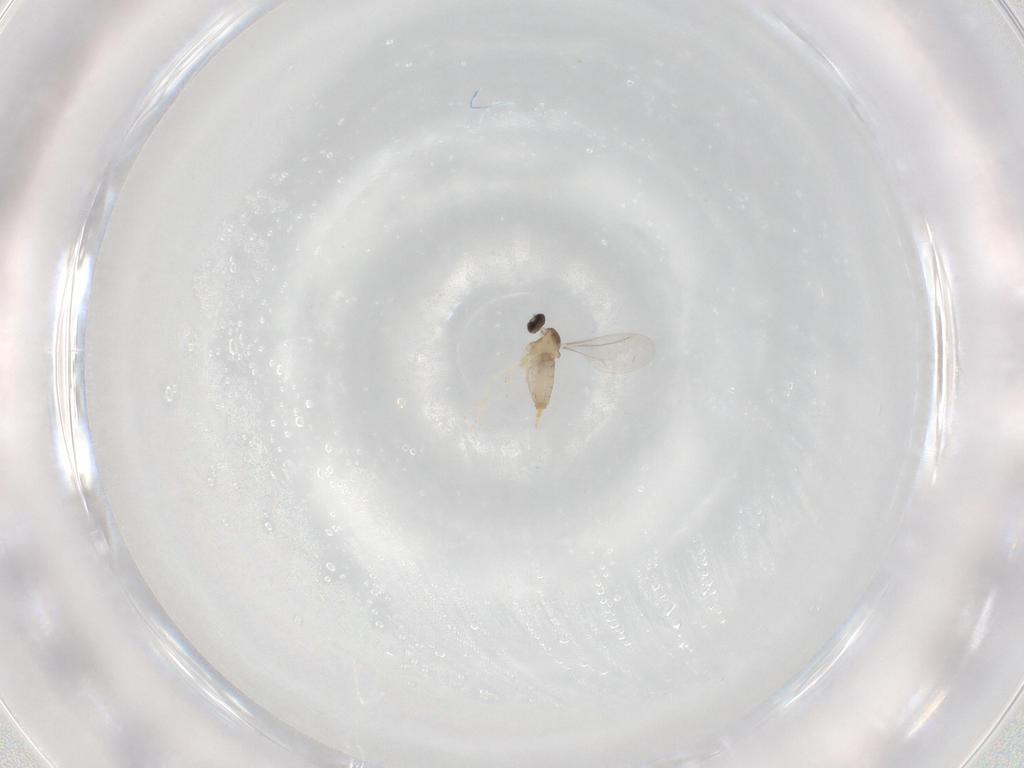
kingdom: Animalia
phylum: Arthropoda
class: Insecta
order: Diptera
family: Cecidomyiidae
